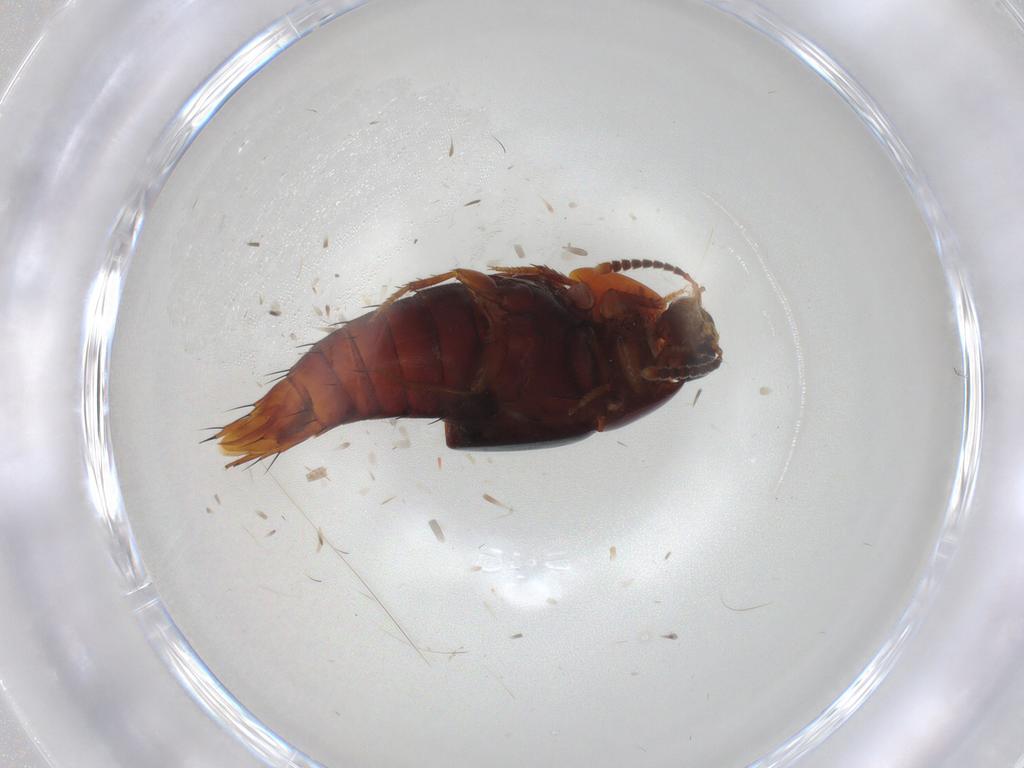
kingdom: Animalia
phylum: Arthropoda
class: Insecta
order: Coleoptera
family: Staphylinidae
